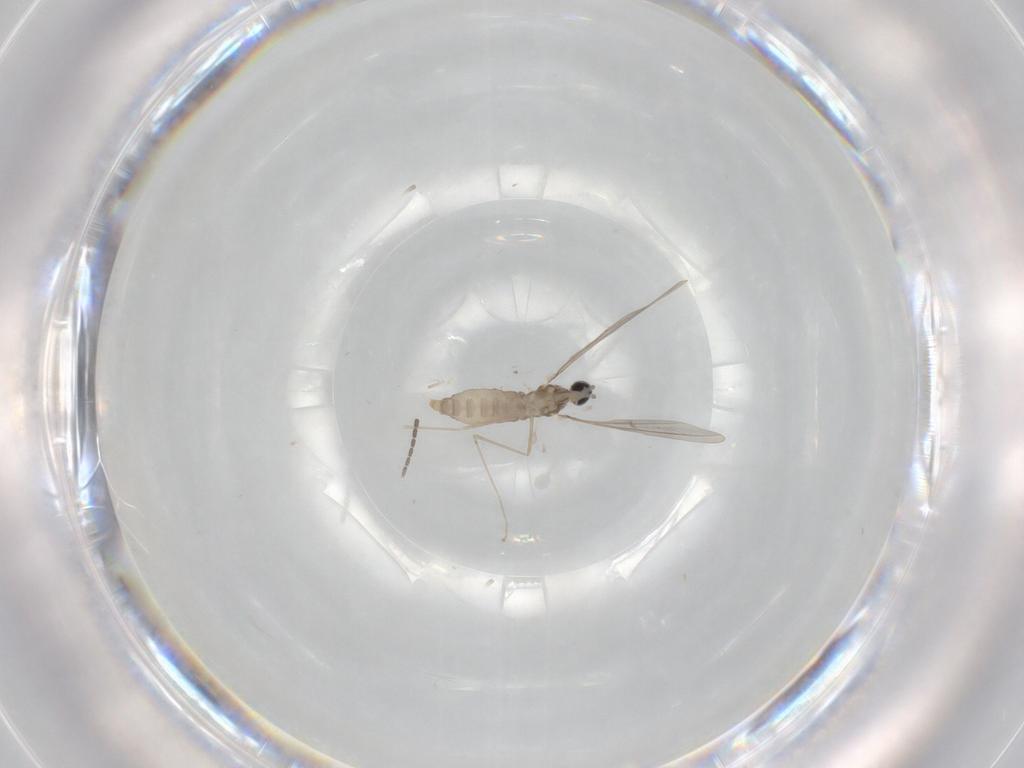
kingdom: Animalia
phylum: Arthropoda
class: Insecta
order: Diptera
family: Cecidomyiidae
